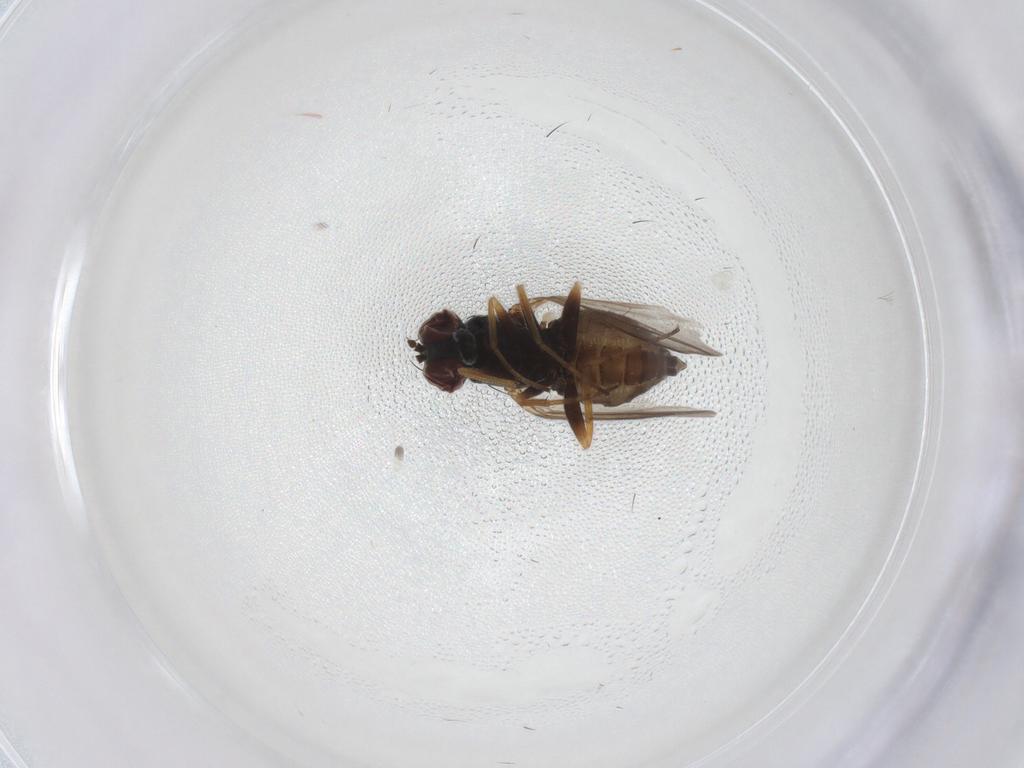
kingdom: Animalia
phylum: Arthropoda
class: Insecta
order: Diptera
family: Dolichopodidae
